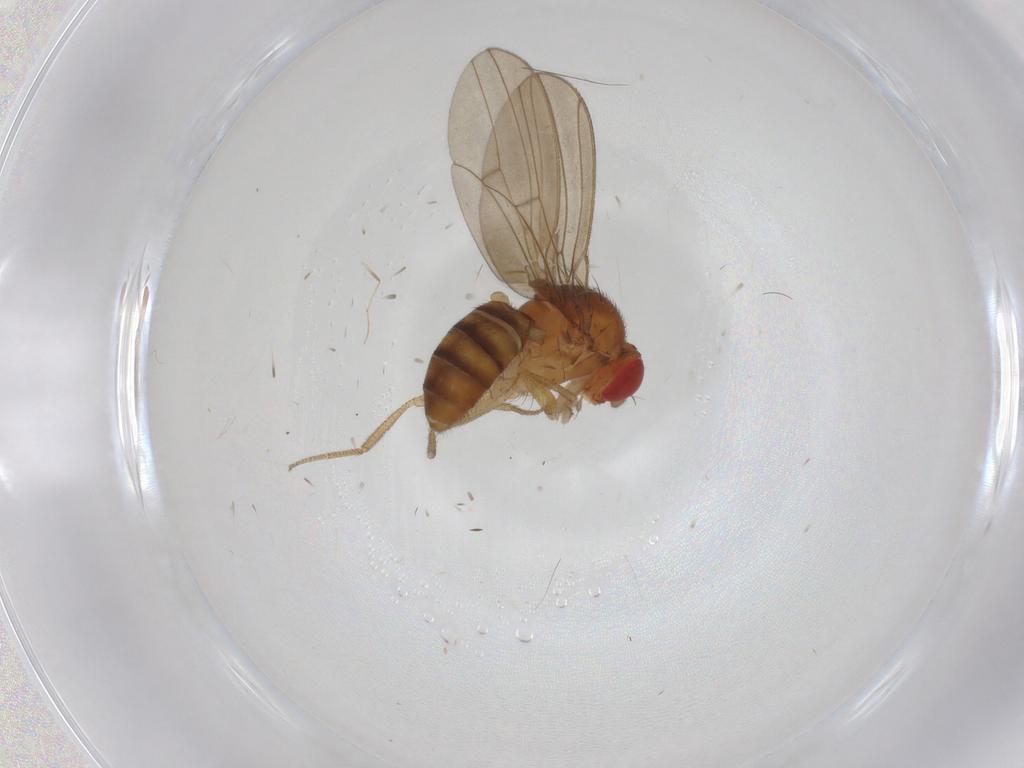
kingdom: Animalia
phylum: Arthropoda
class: Insecta
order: Diptera
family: Drosophilidae
